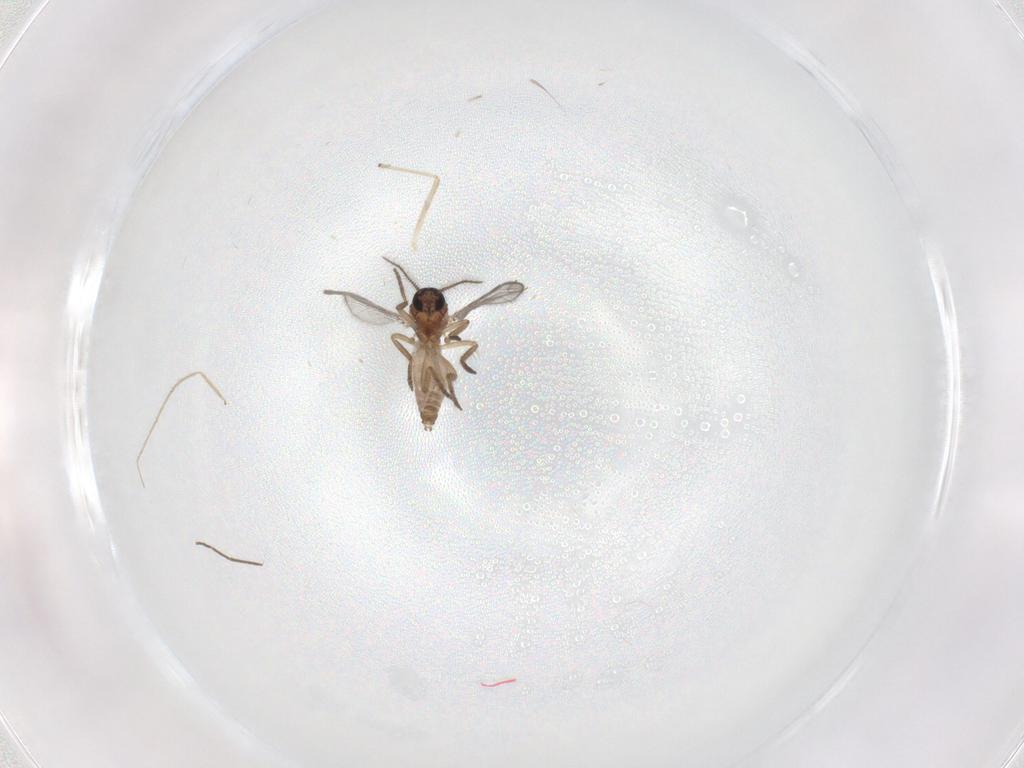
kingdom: Animalia
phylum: Arthropoda
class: Insecta
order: Diptera
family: Chironomidae
